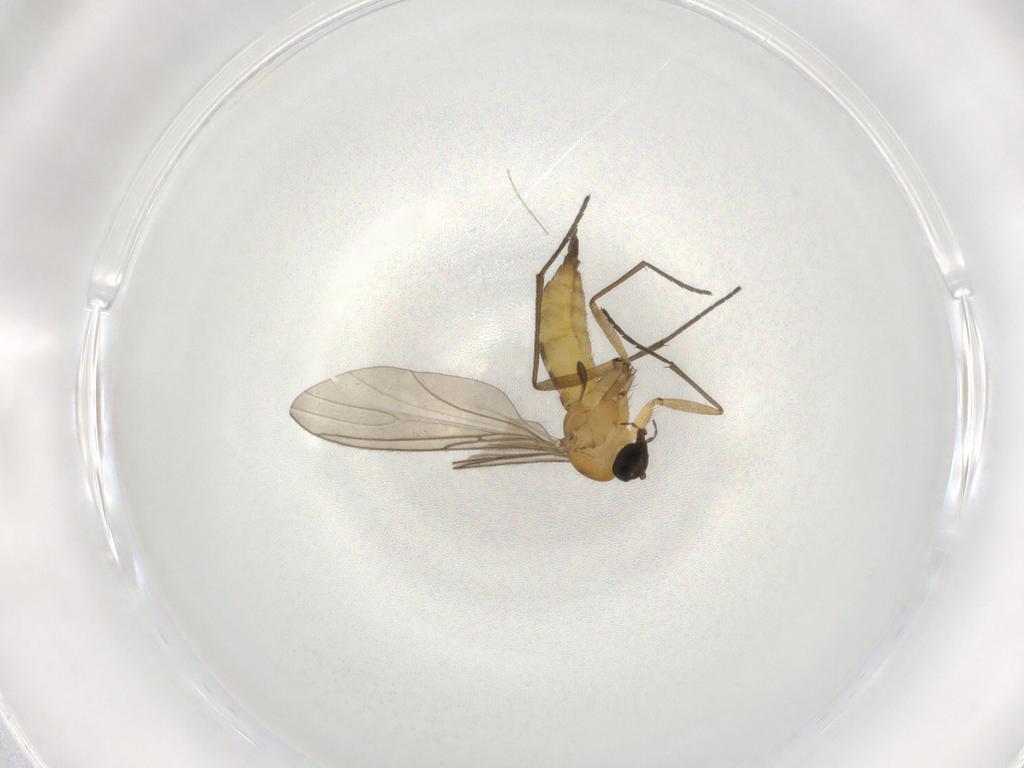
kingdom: Animalia
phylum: Arthropoda
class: Insecta
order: Diptera
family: Sciaridae
